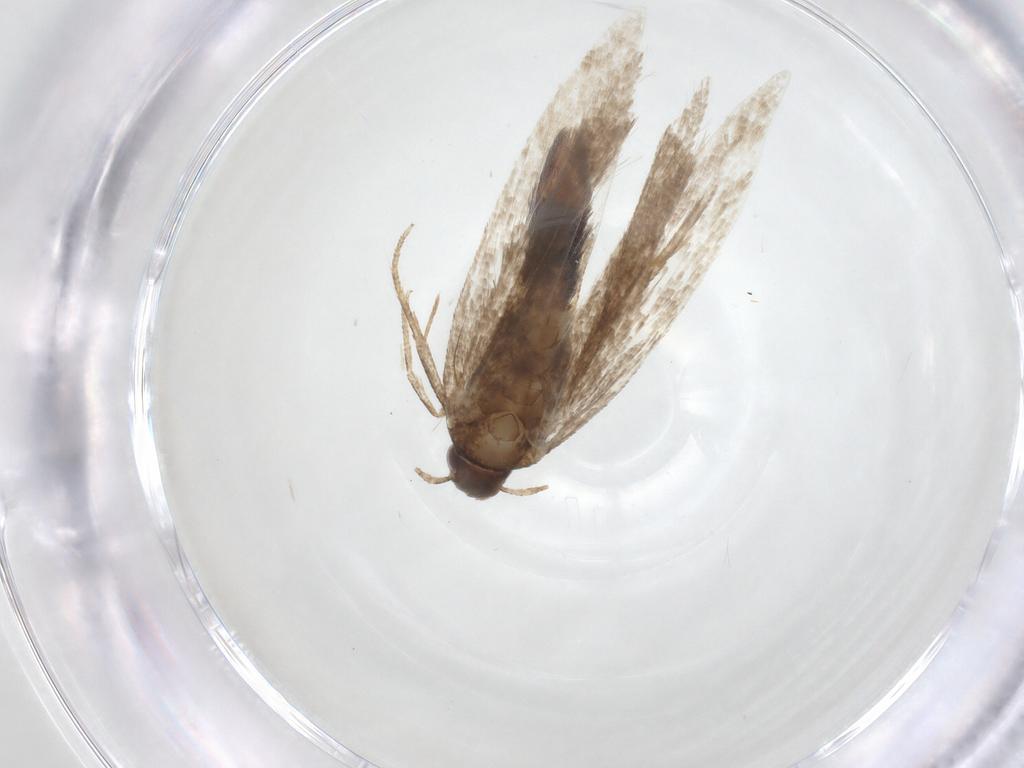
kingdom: Animalia
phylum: Arthropoda
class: Insecta
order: Lepidoptera
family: Gelechiidae
